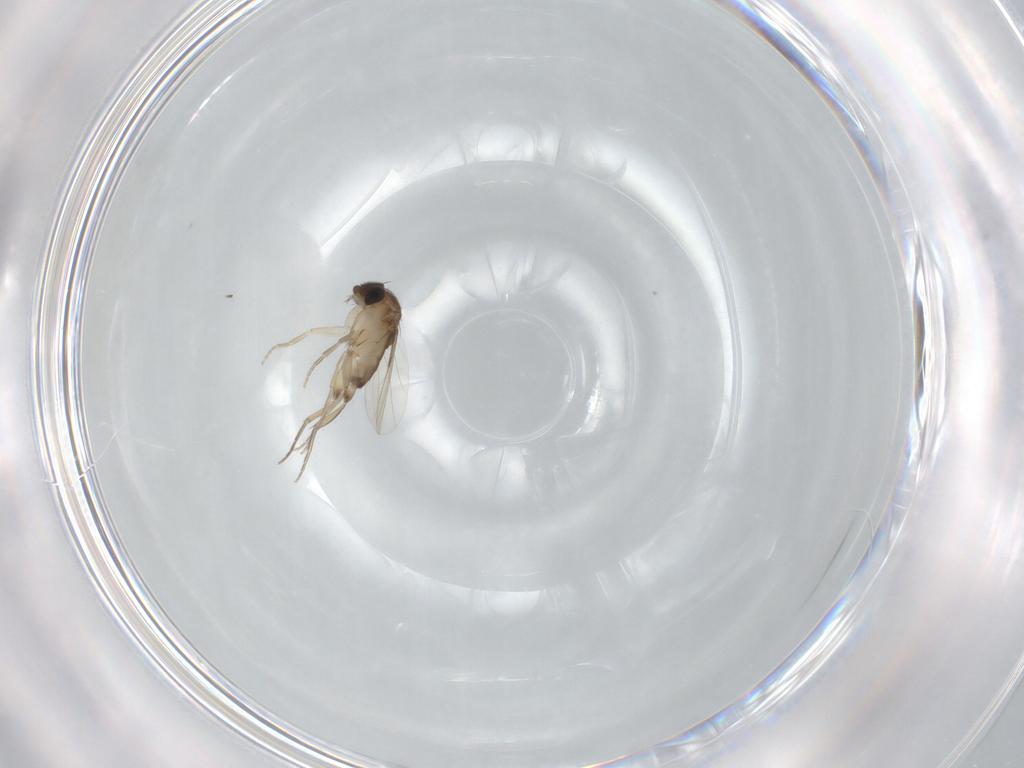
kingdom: Animalia
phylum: Arthropoda
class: Insecta
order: Diptera
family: Phoridae
